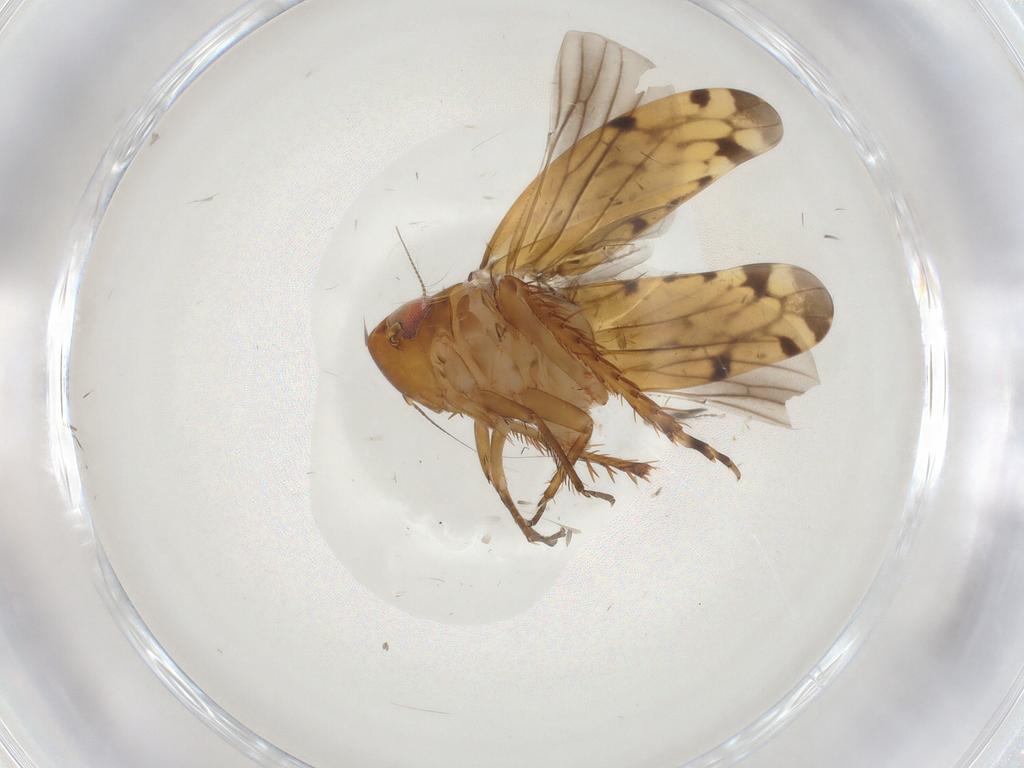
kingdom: Animalia
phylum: Arthropoda
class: Insecta
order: Diptera
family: Chironomidae
